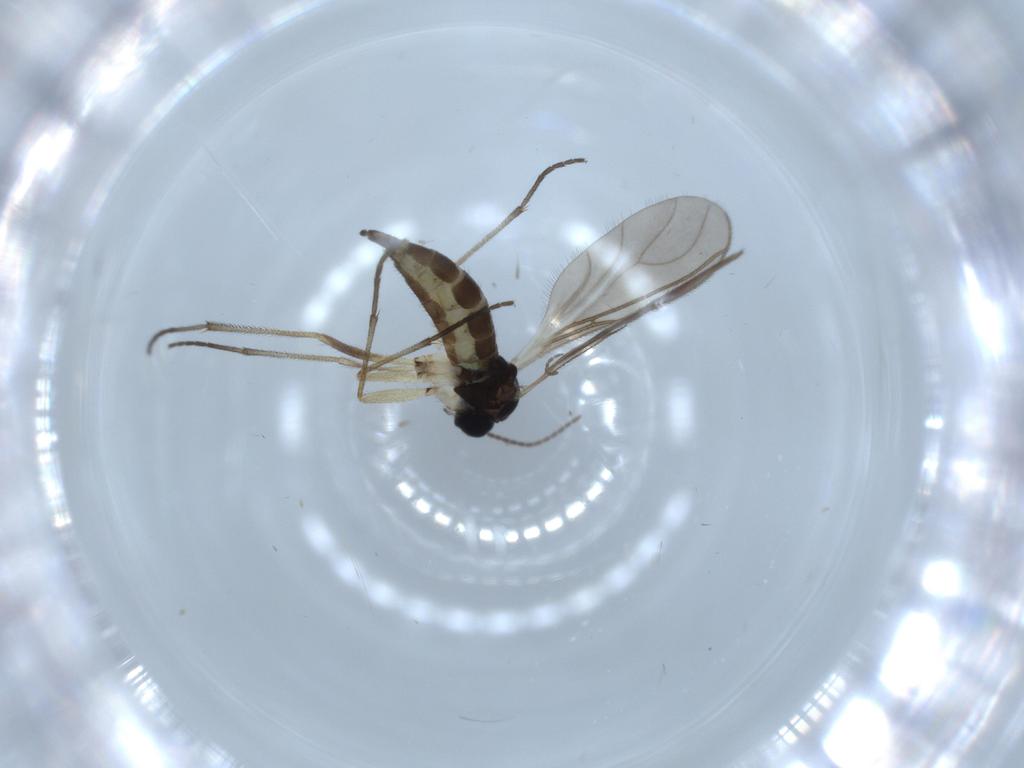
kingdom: Animalia
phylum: Arthropoda
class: Insecta
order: Diptera
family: Sciaridae
